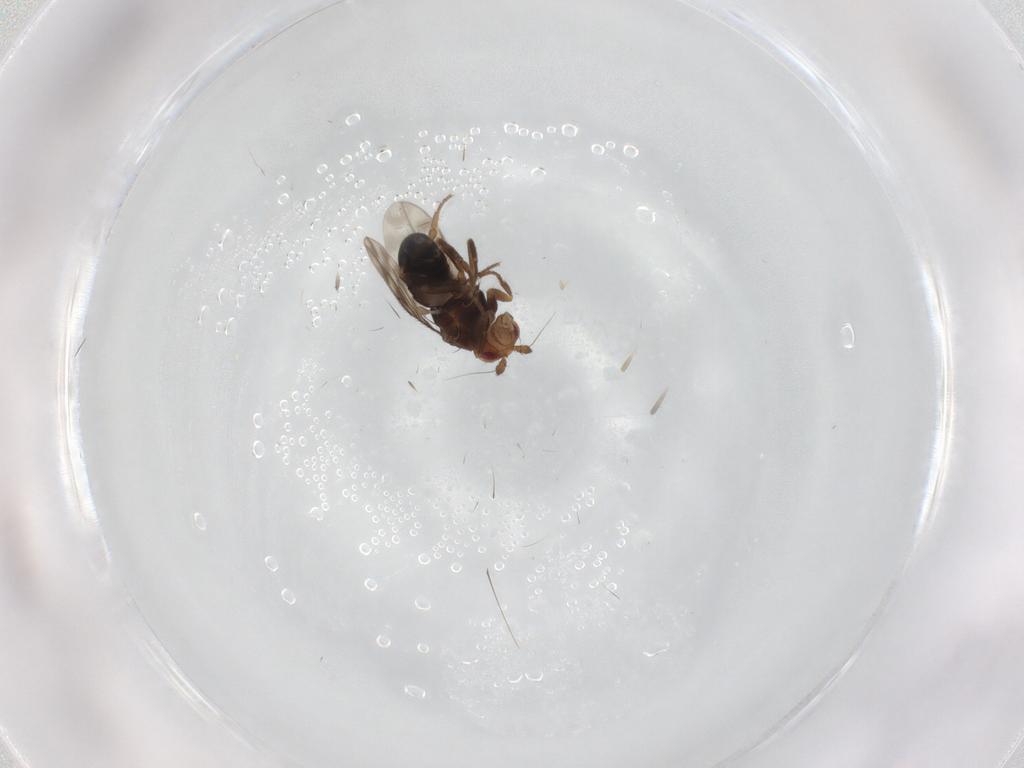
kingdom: Animalia
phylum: Arthropoda
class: Insecta
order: Diptera
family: Sphaeroceridae
